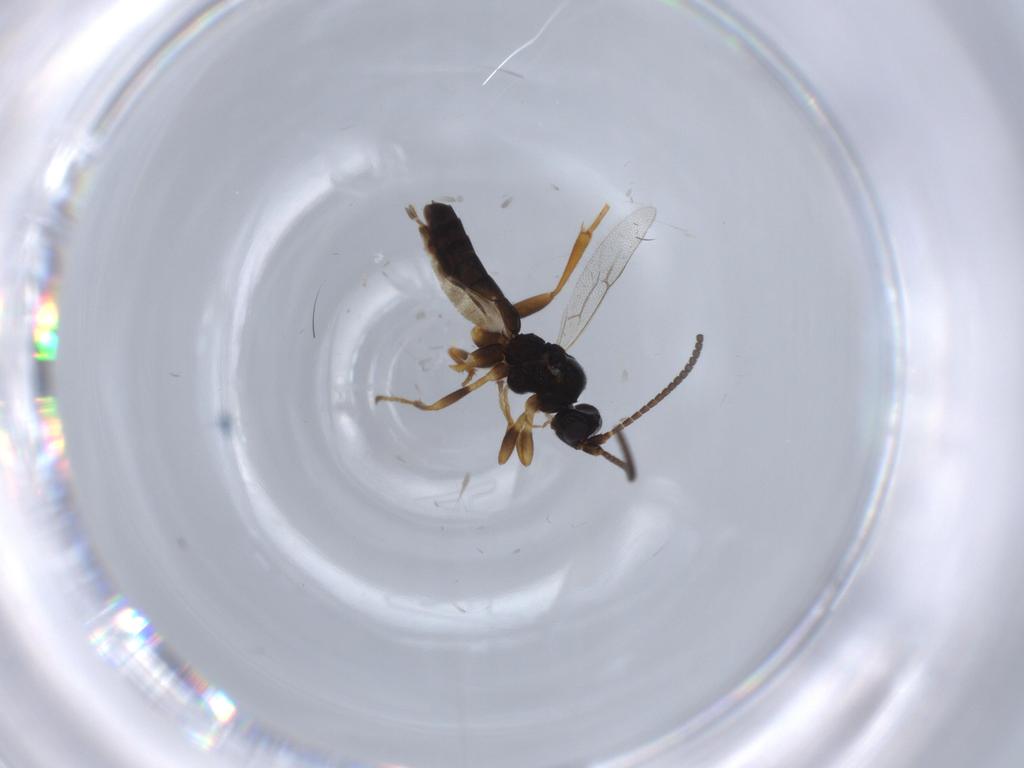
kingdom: Animalia
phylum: Arthropoda
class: Insecta
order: Hymenoptera
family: Ichneumonidae
